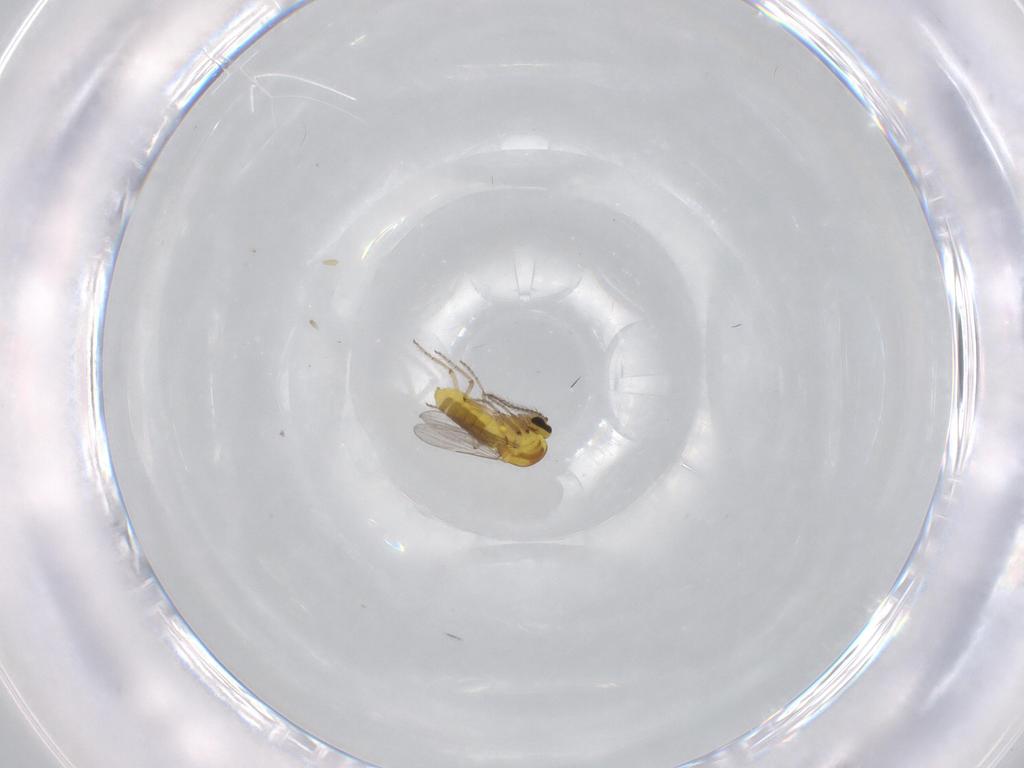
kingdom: Animalia
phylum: Arthropoda
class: Insecta
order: Diptera
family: Ceratopogonidae
